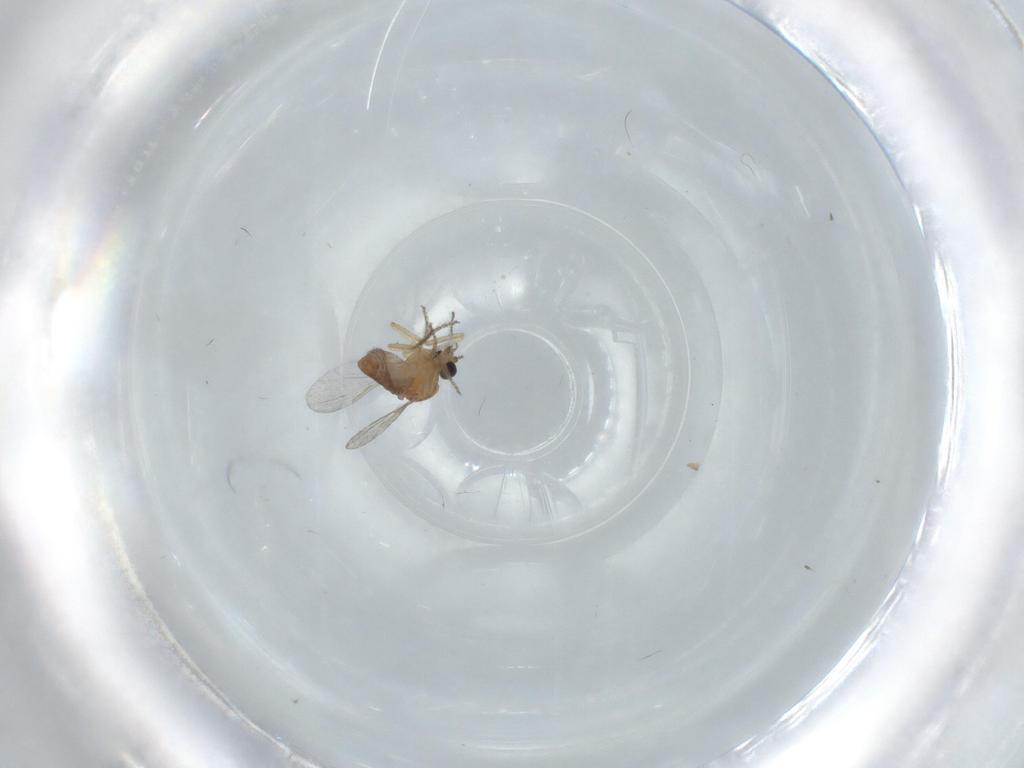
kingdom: Animalia
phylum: Arthropoda
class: Insecta
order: Diptera
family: Ceratopogonidae
